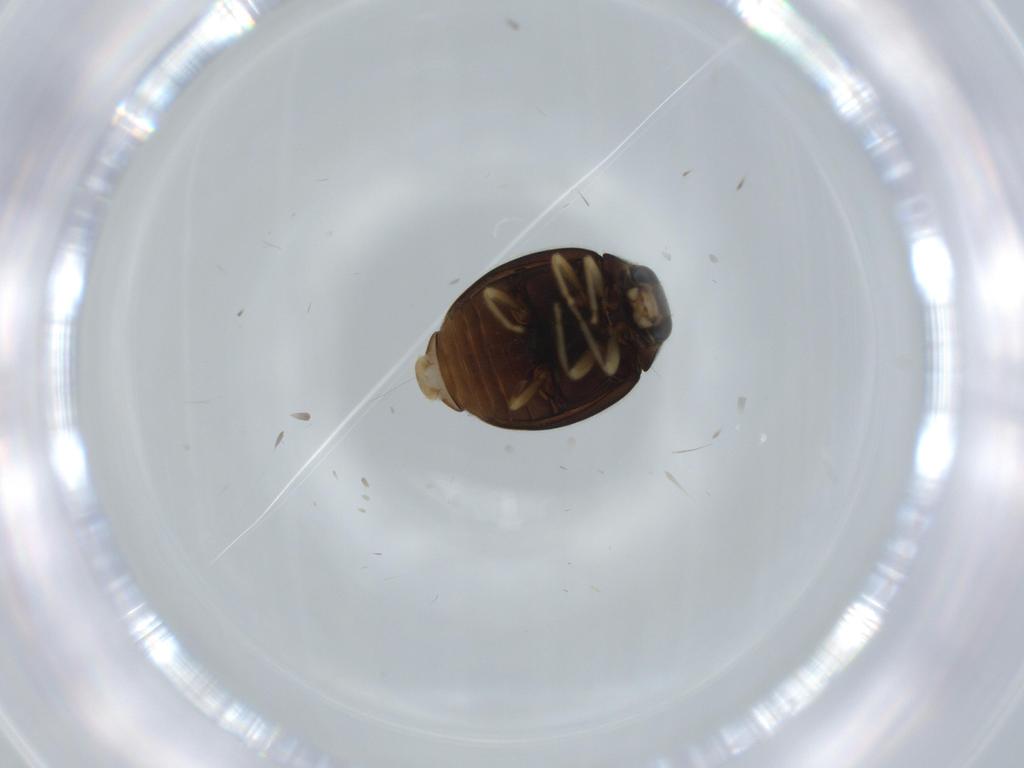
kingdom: Animalia
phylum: Arthropoda
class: Insecta
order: Coleoptera
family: Coccinellidae
